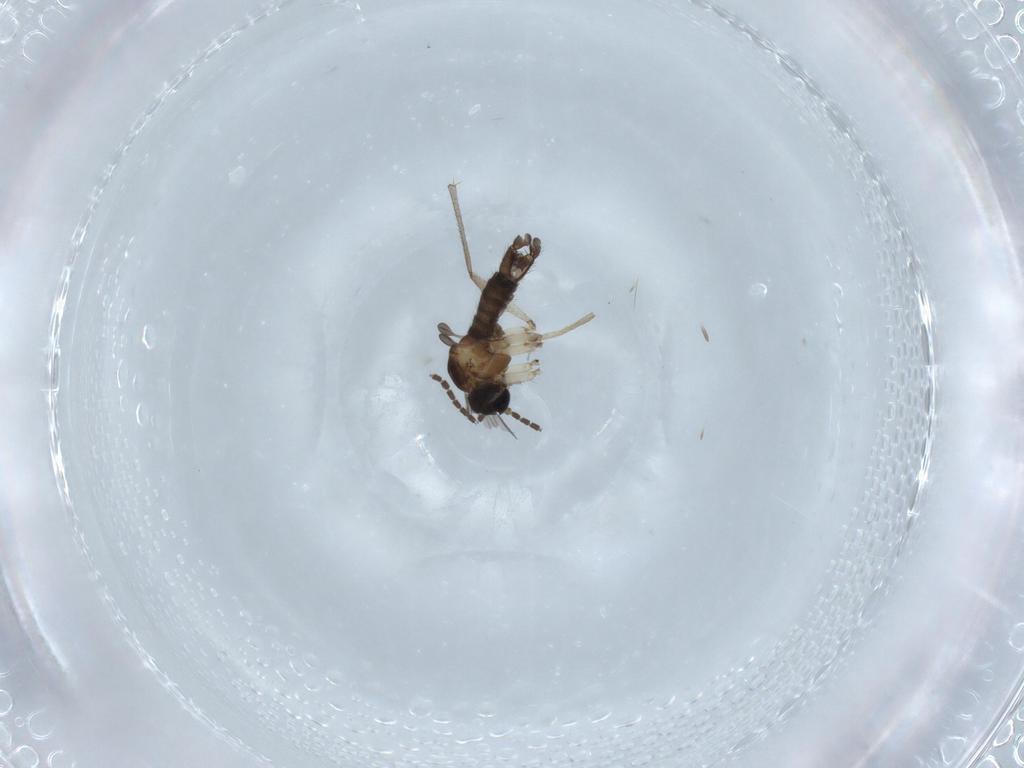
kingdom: Animalia
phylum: Arthropoda
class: Insecta
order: Diptera
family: Sciaridae
